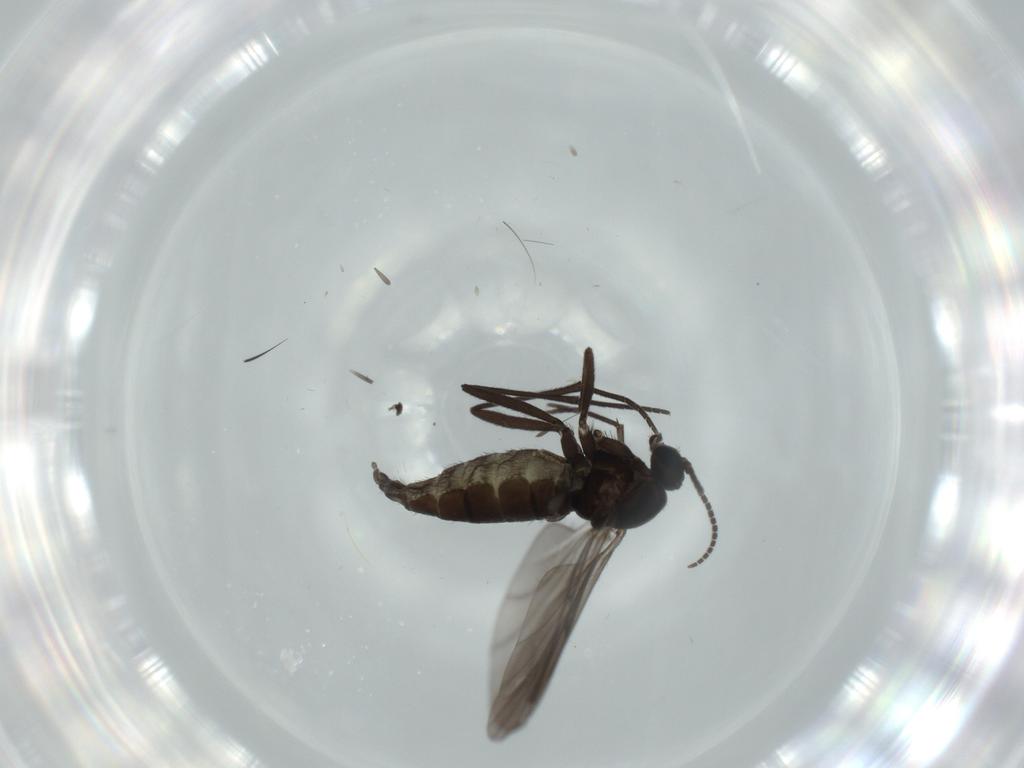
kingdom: Animalia
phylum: Arthropoda
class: Insecta
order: Diptera
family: Sciaridae
